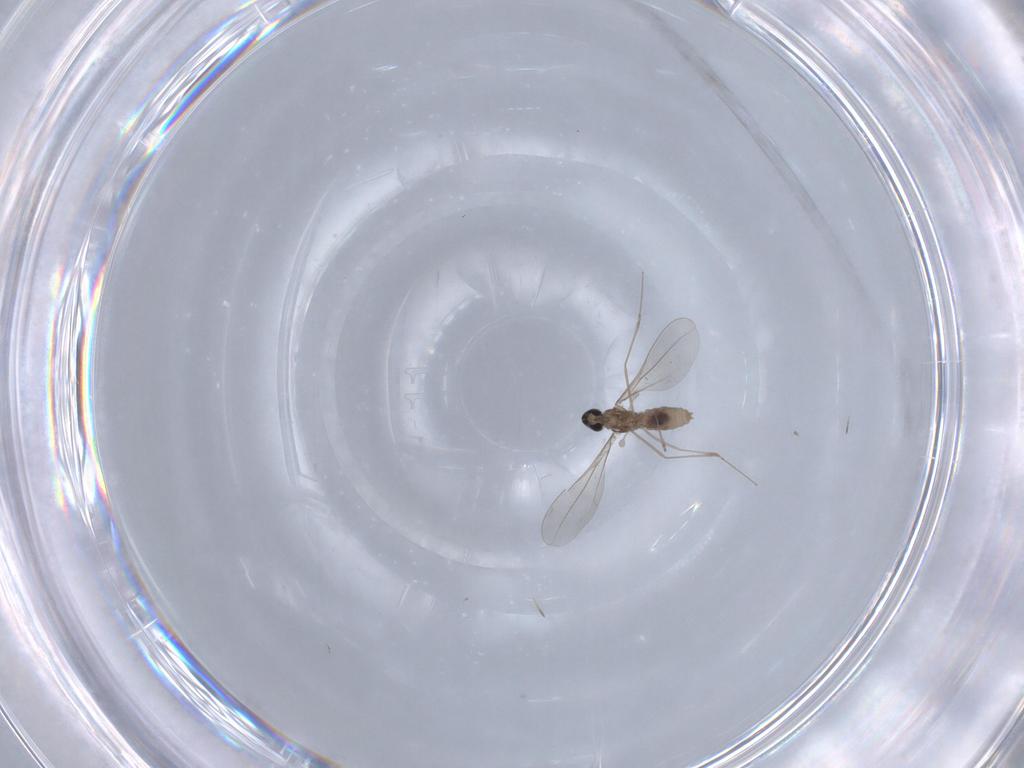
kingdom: Animalia
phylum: Arthropoda
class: Insecta
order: Diptera
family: Tabanidae
